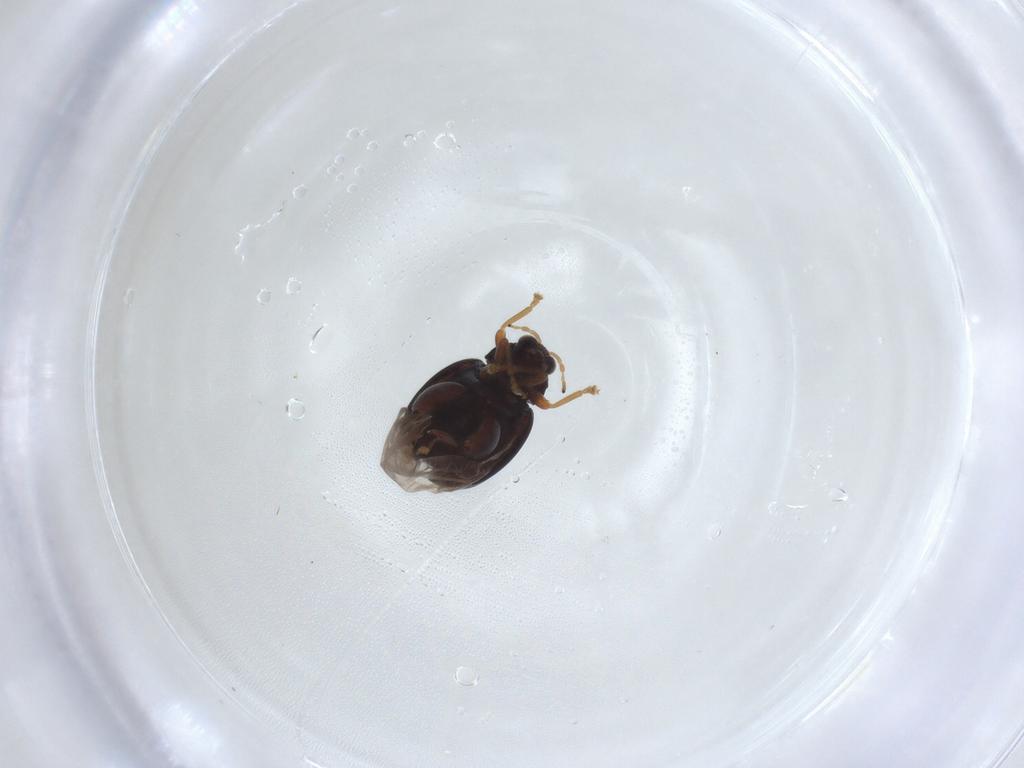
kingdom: Animalia
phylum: Arthropoda
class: Insecta
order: Coleoptera
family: Chrysomelidae
